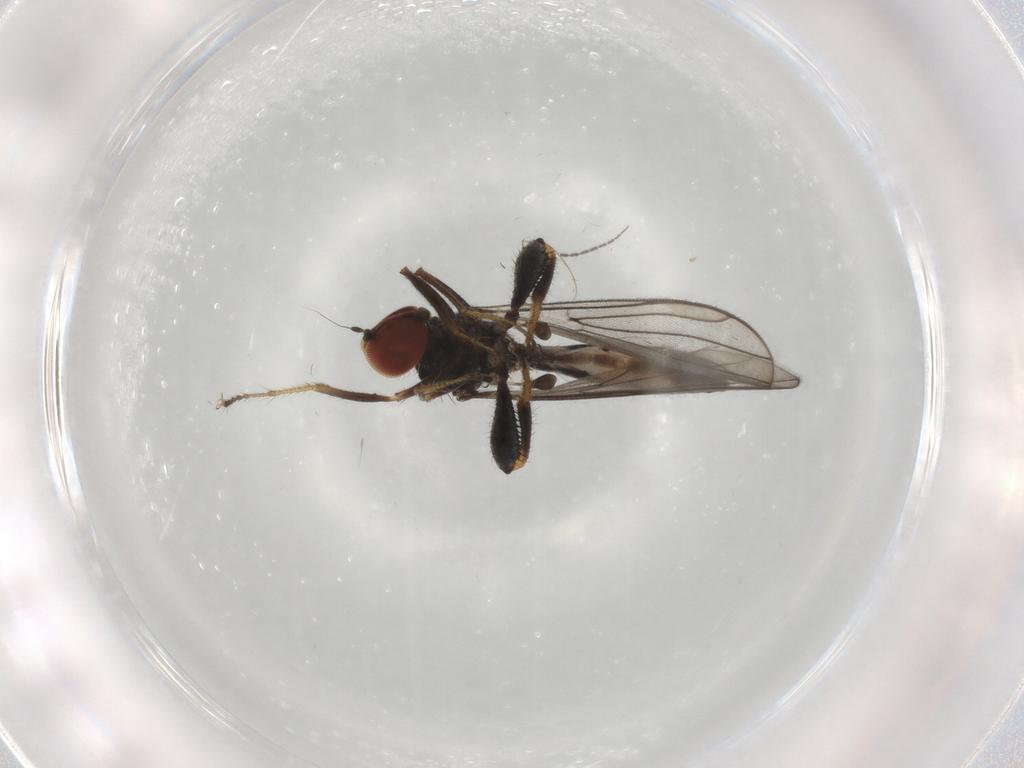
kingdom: Animalia
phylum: Arthropoda
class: Insecta
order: Diptera
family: Hybotidae
